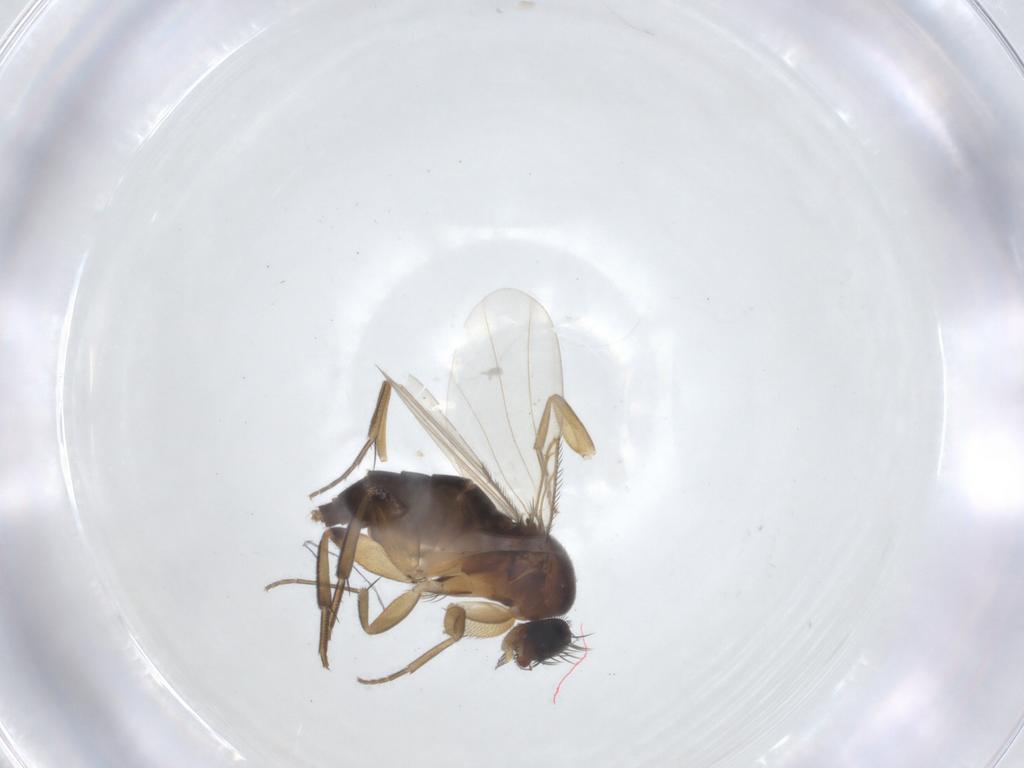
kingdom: Animalia
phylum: Arthropoda
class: Insecta
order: Diptera
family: Phoridae
